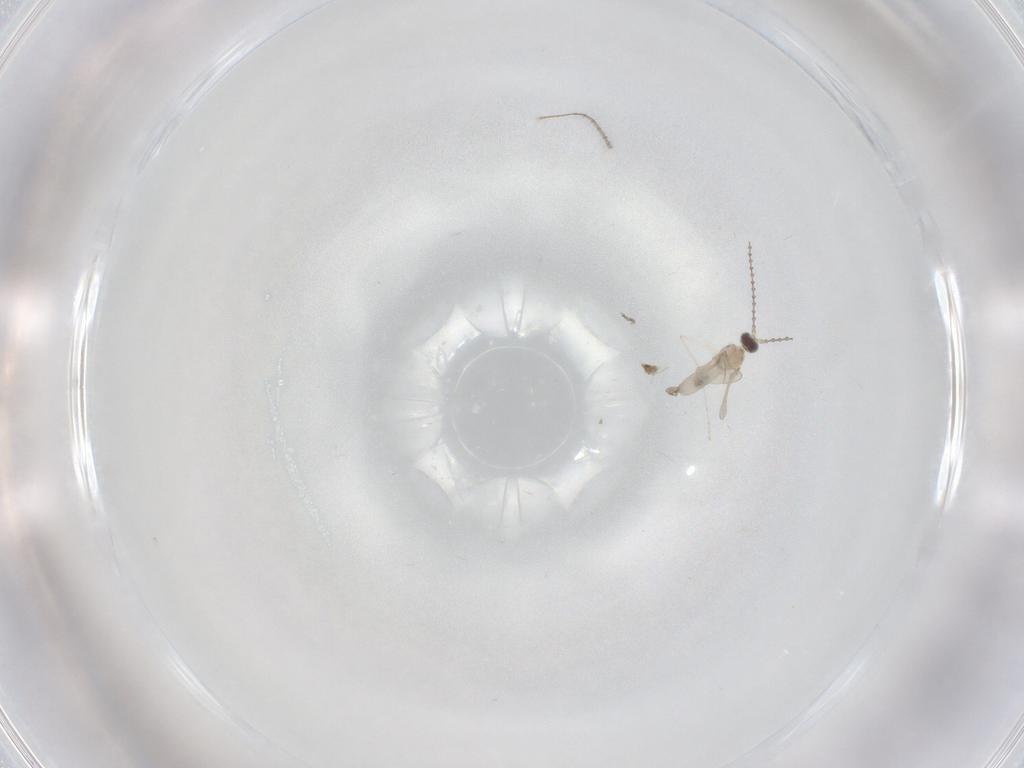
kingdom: Animalia
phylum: Arthropoda
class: Insecta
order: Diptera
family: Cecidomyiidae
